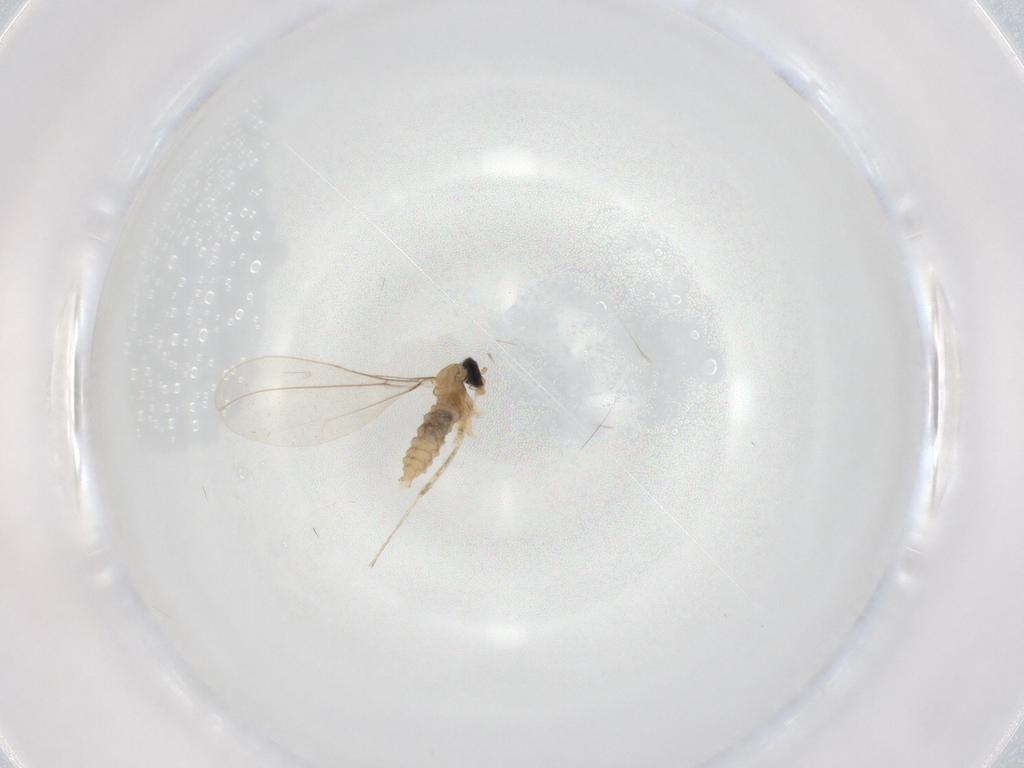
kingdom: Animalia
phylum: Arthropoda
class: Insecta
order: Diptera
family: Cecidomyiidae
